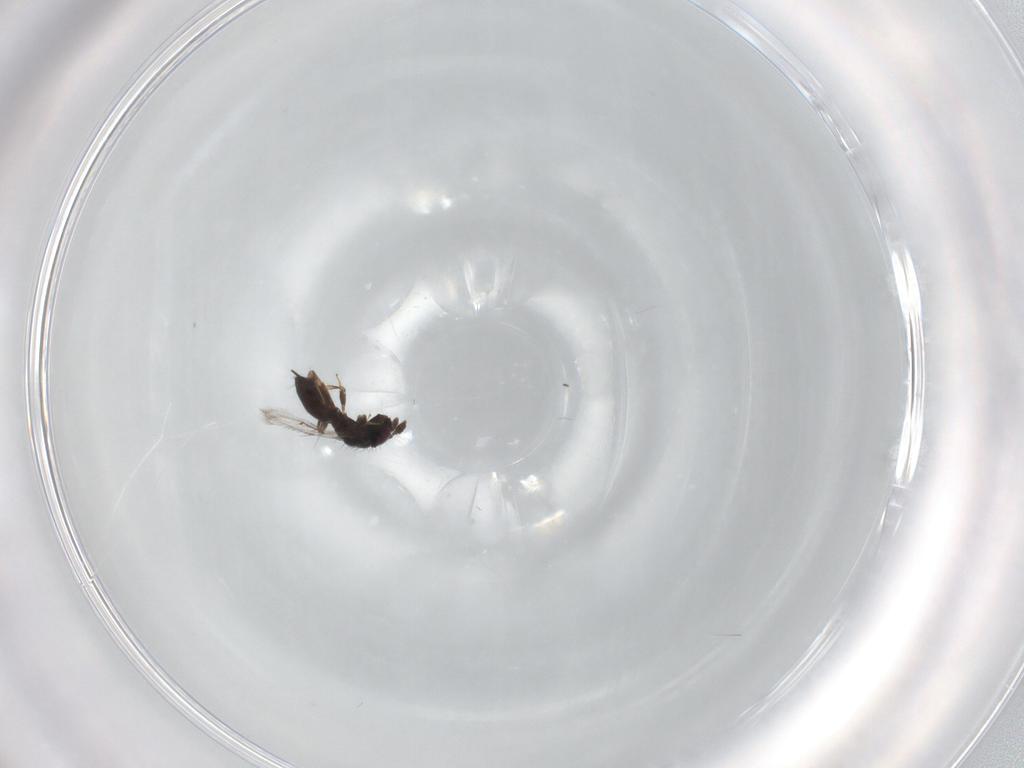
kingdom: Animalia
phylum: Arthropoda
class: Insecta
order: Hymenoptera
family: Pteromalidae
